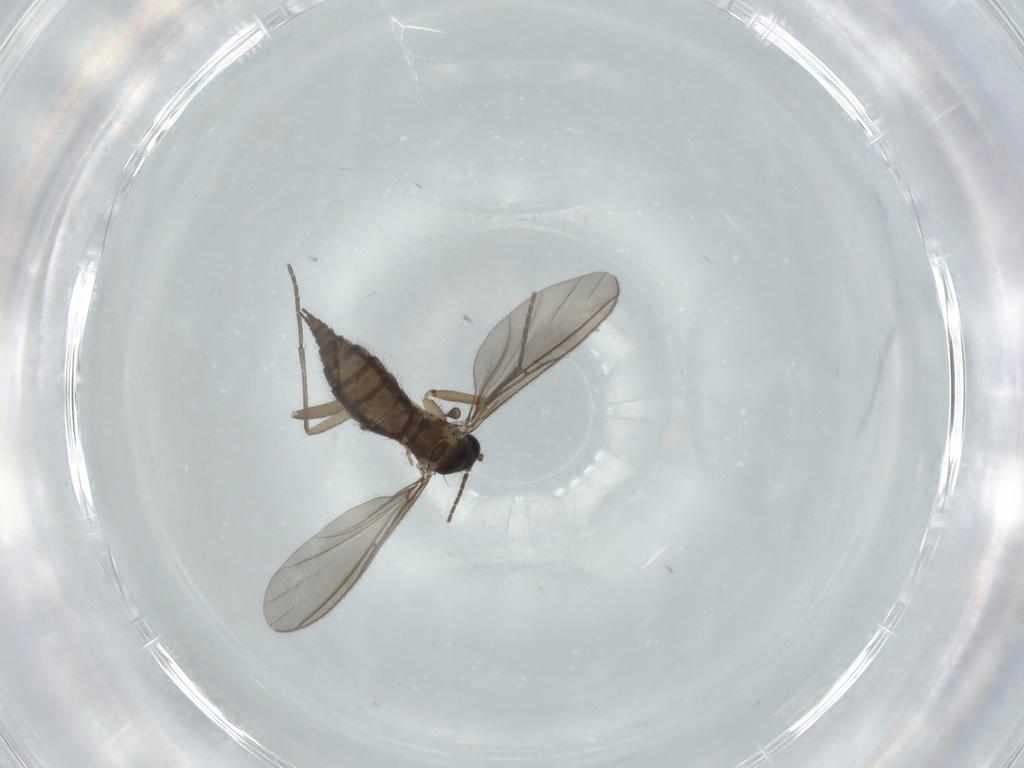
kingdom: Animalia
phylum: Arthropoda
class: Insecta
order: Diptera
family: Sciaridae
